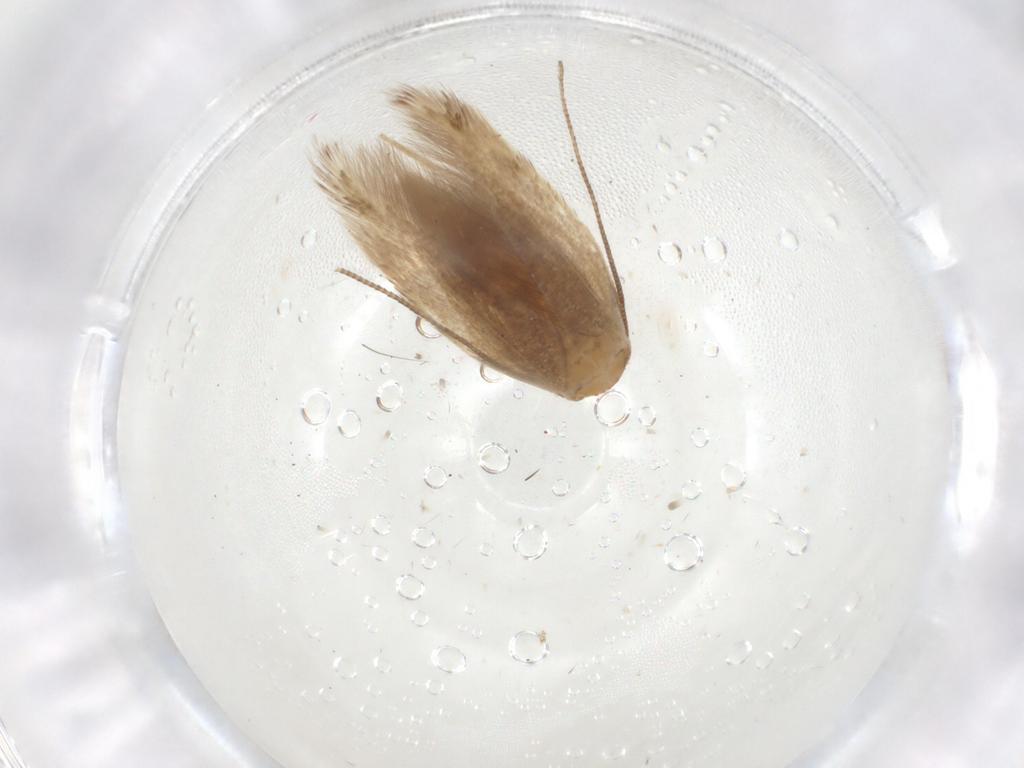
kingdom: Animalia
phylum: Arthropoda
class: Insecta
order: Lepidoptera
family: Tineidae
